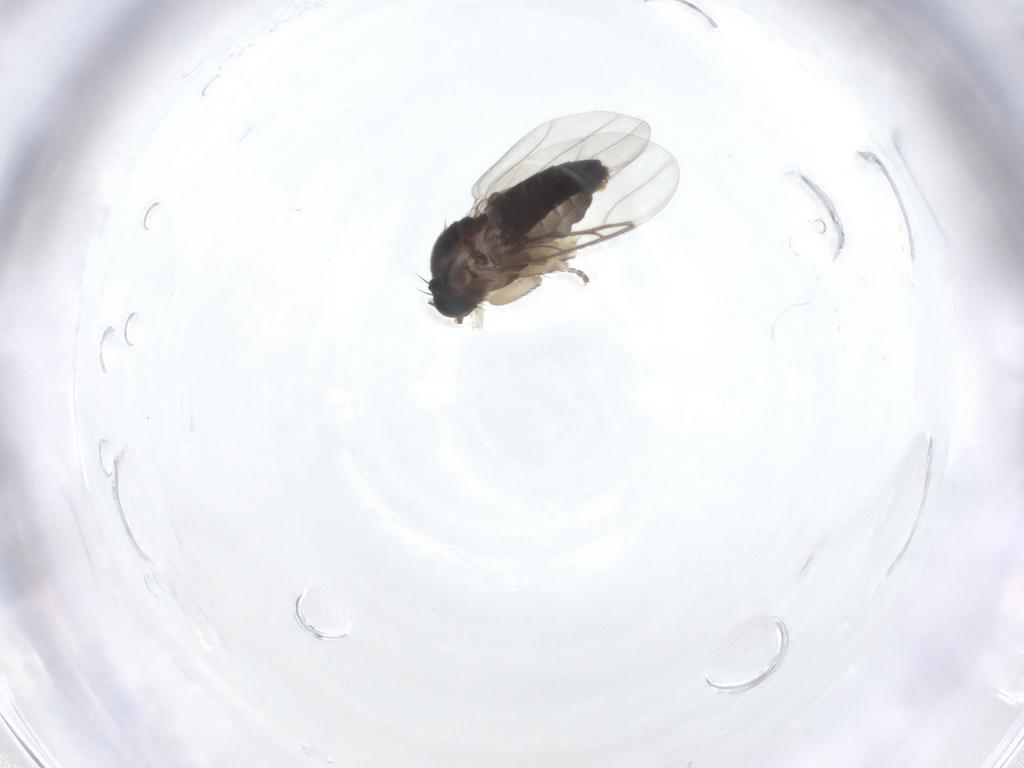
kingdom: Animalia
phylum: Arthropoda
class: Insecta
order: Diptera
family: Phoridae
